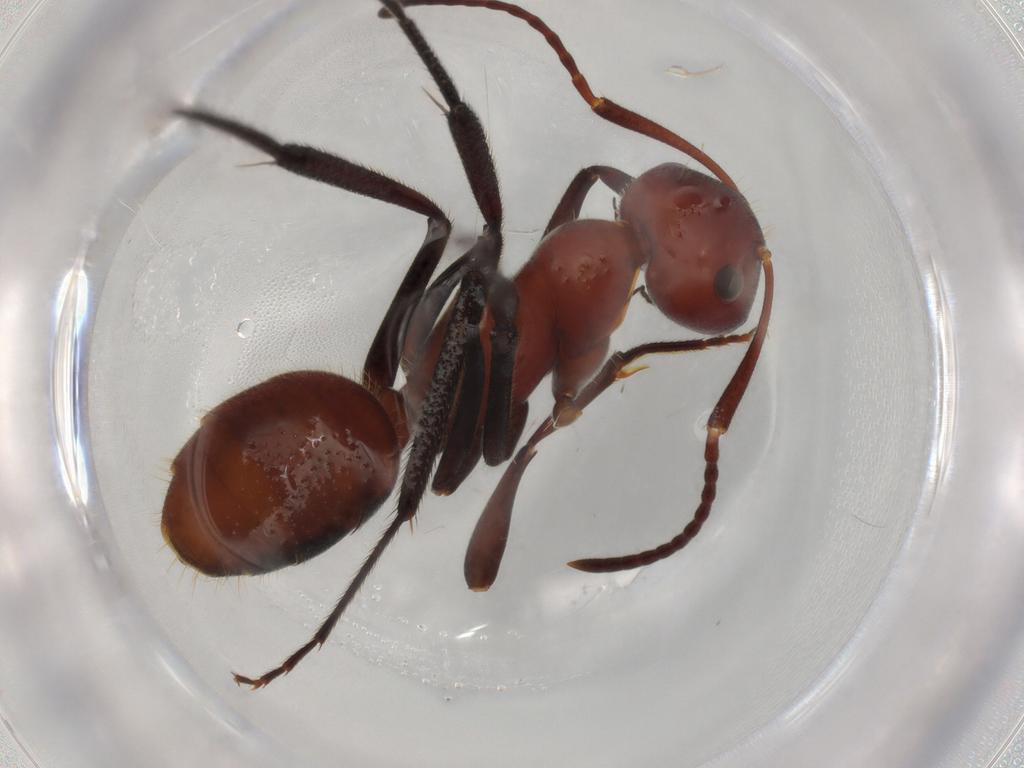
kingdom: Animalia
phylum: Arthropoda
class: Insecta
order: Hymenoptera
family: Formicidae
